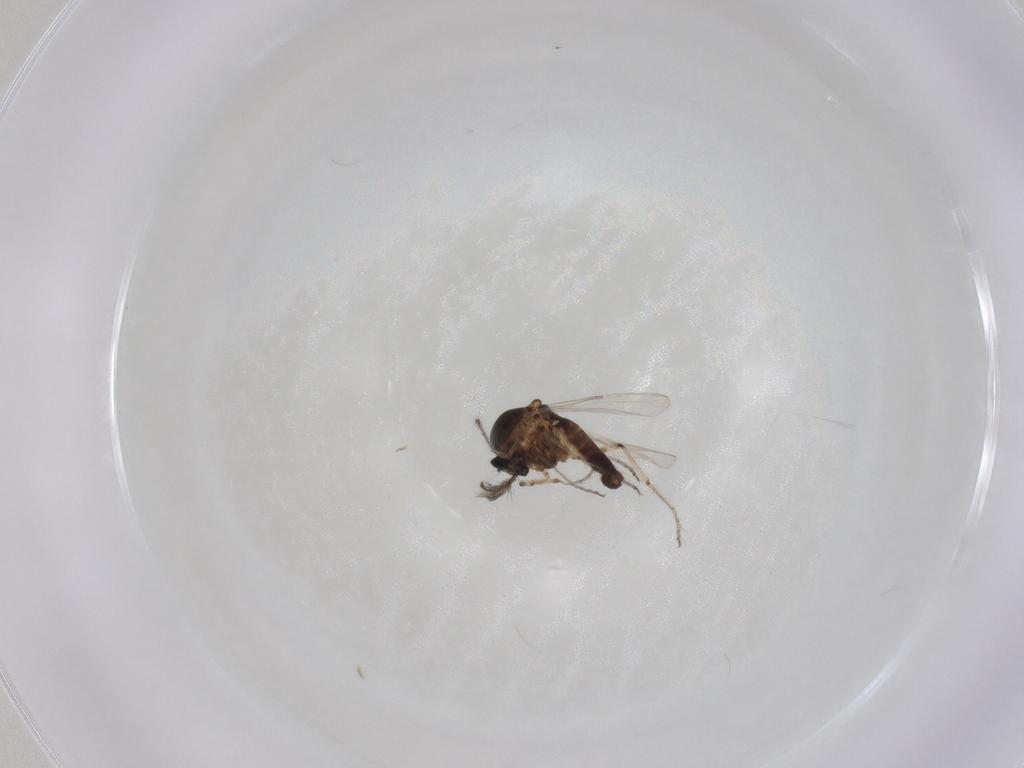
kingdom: Animalia
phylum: Arthropoda
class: Insecta
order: Diptera
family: Ceratopogonidae
